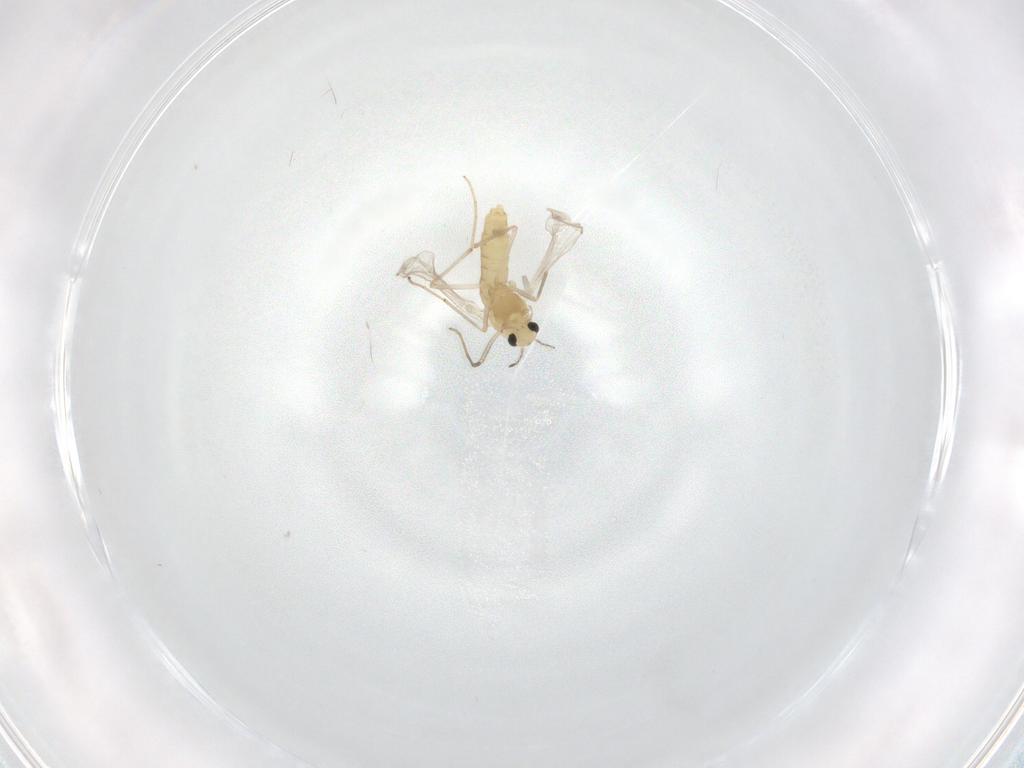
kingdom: Animalia
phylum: Arthropoda
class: Insecta
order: Diptera
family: Chironomidae
